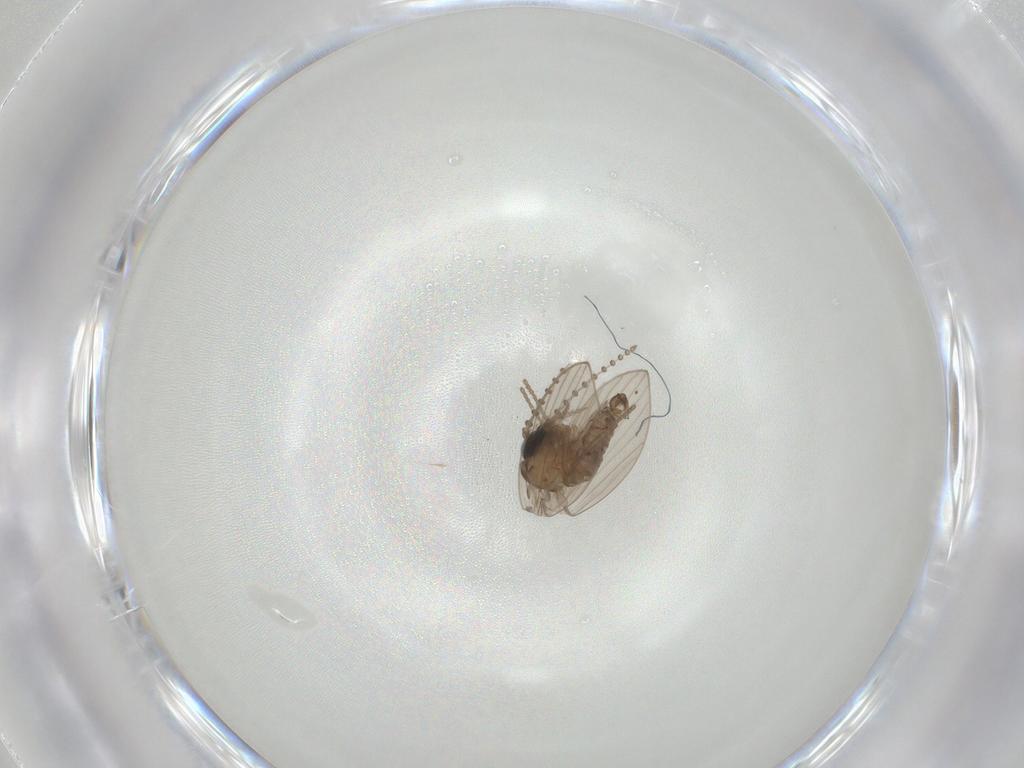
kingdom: Animalia
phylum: Arthropoda
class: Insecta
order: Diptera
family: Psychodidae
